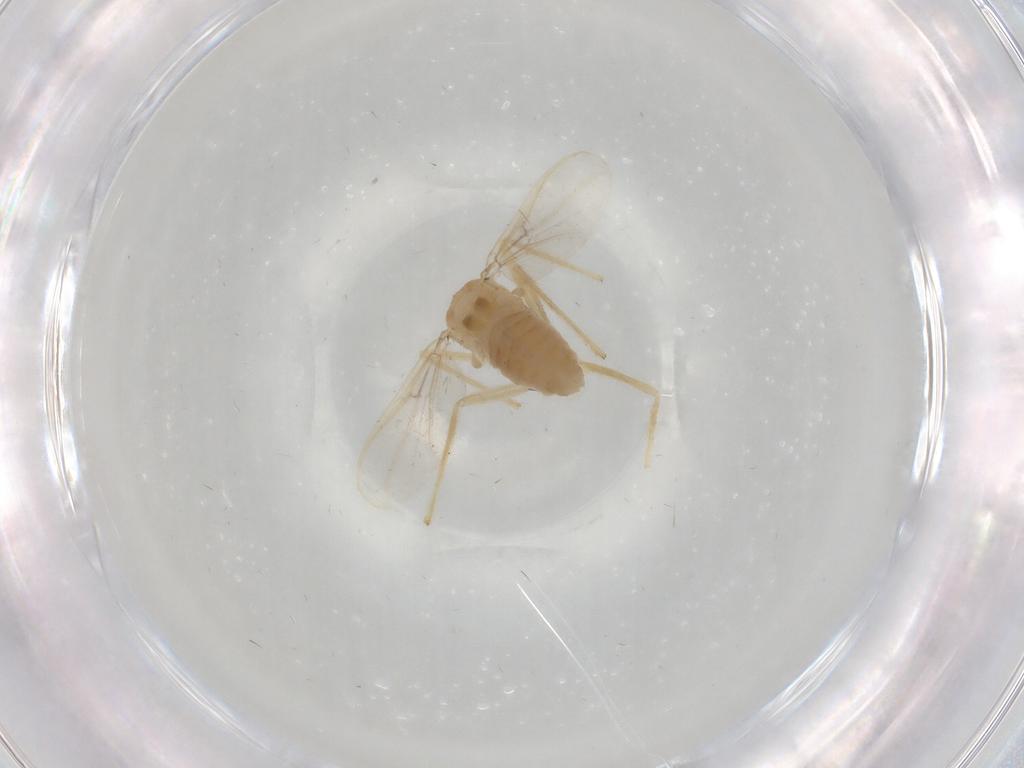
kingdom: Animalia
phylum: Arthropoda
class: Insecta
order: Diptera
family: Chironomidae
